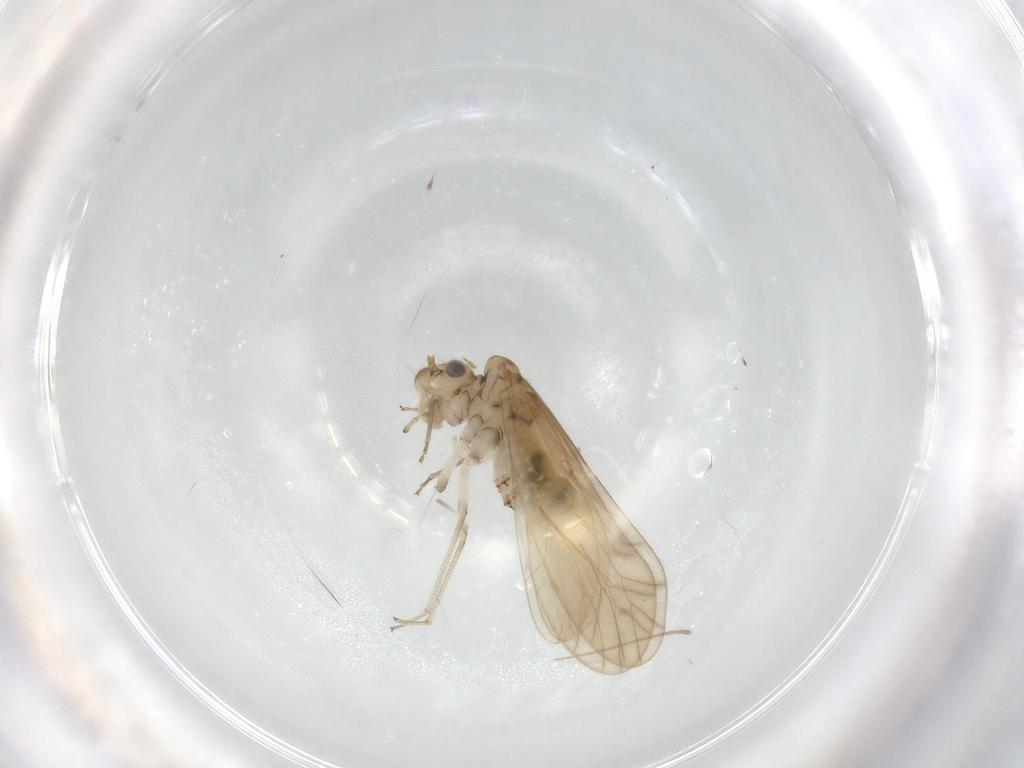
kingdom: Animalia
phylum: Arthropoda
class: Insecta
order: Psocodea
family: Caeciliusidae
